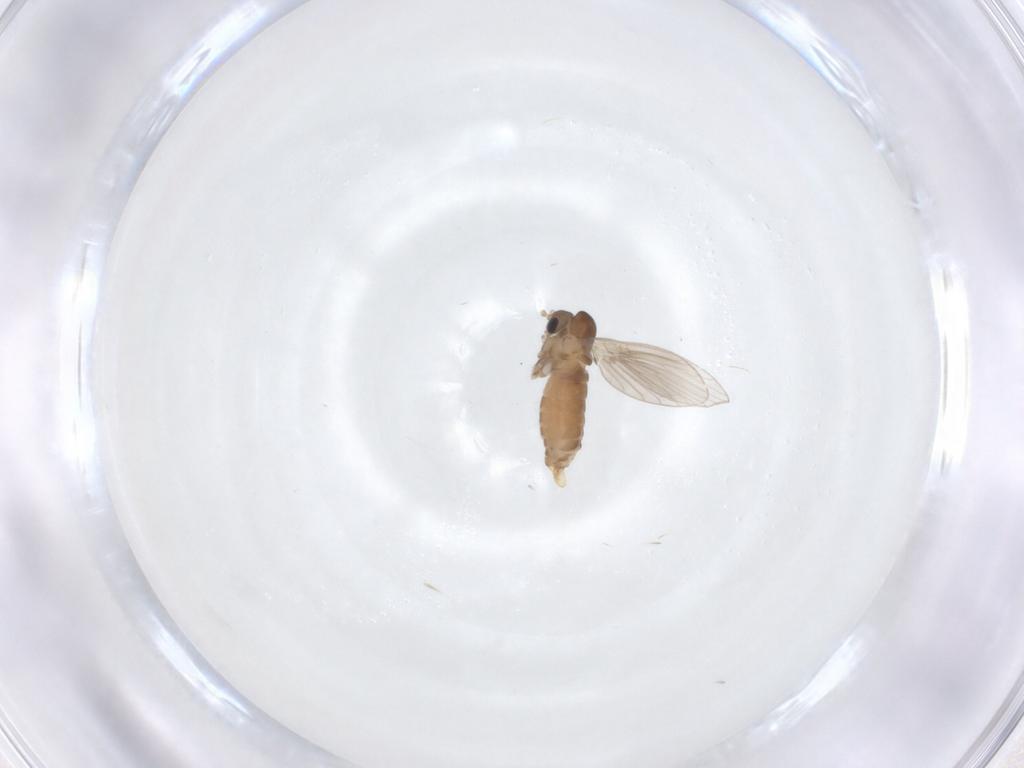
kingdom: Animalia
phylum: Arthropoda
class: Insecta
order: Diptera
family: Psychodidae
